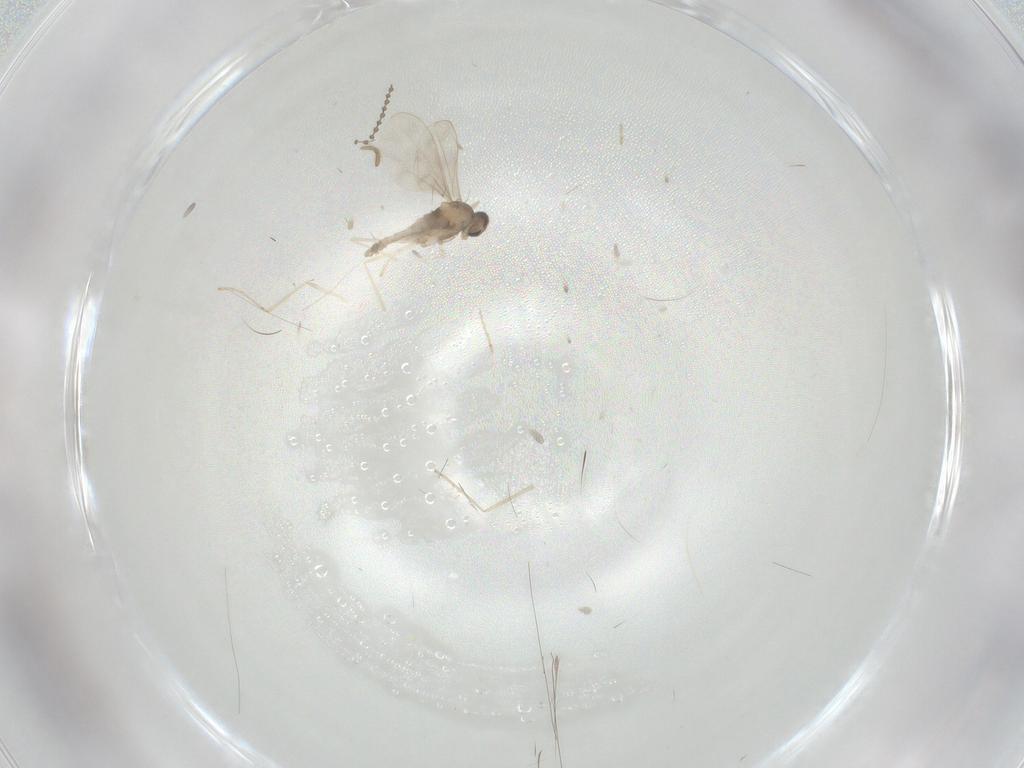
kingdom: Animalia
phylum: Arthropoda
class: Insecta
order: Diptera
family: Cecidomyiidae
